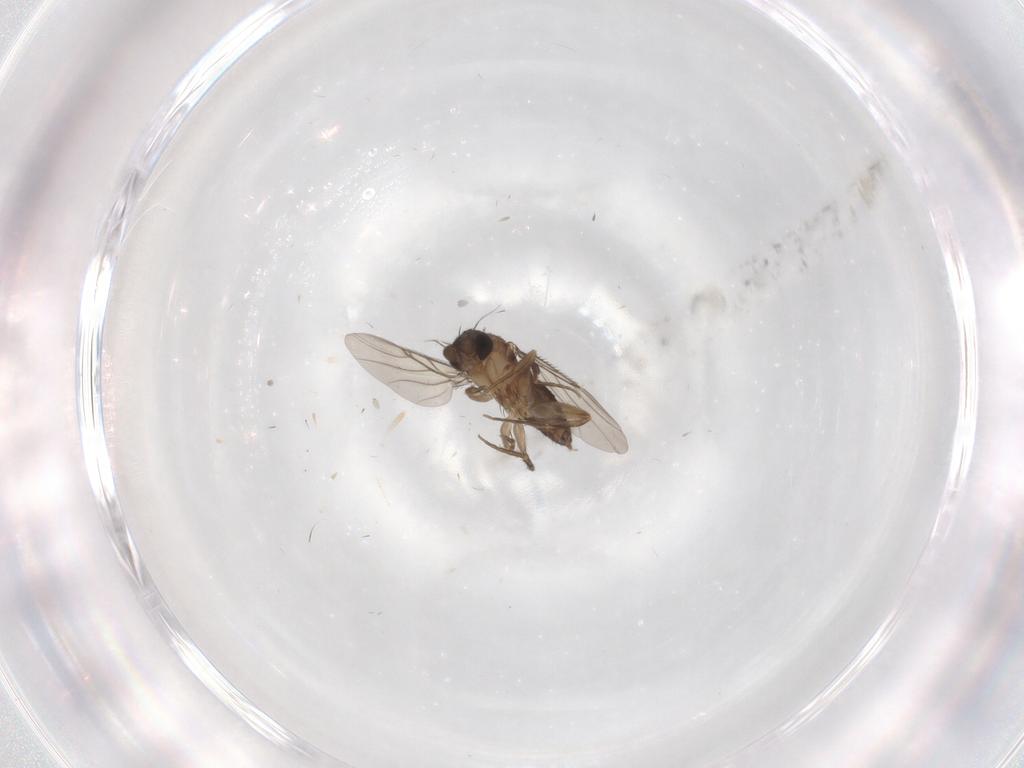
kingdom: Animalia
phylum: Arthropoda
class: Insecta
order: Diptera
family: Phoridae
